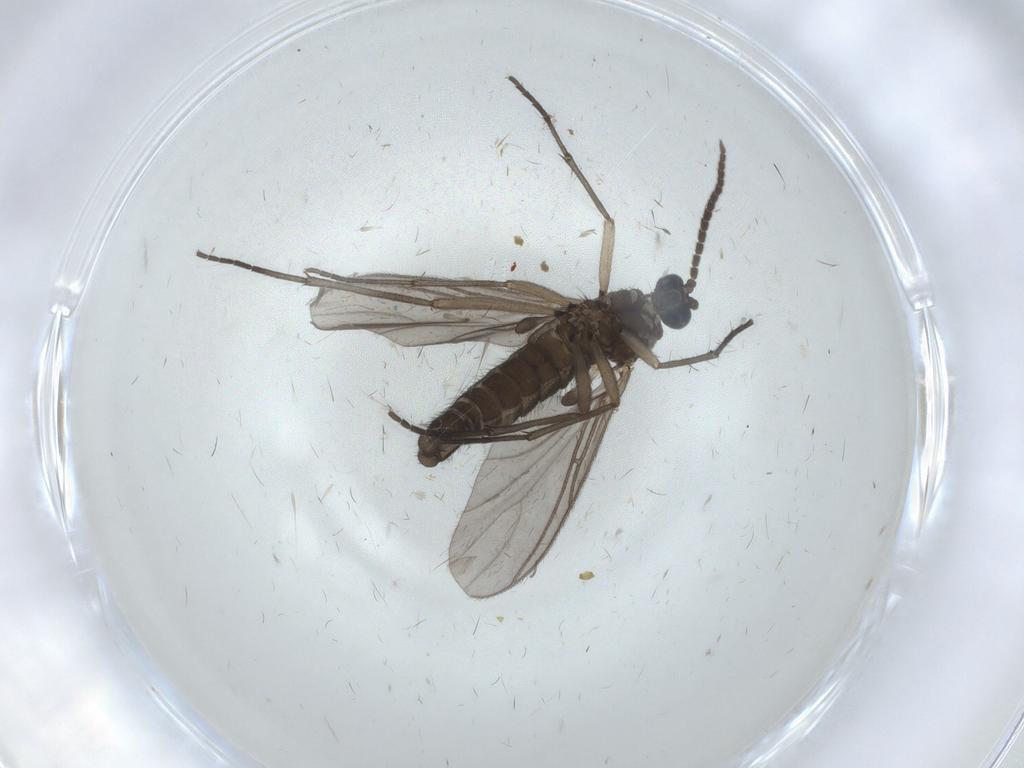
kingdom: Animalia
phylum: Arthropoda
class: Insecta
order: Diptera
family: Sciaridae
